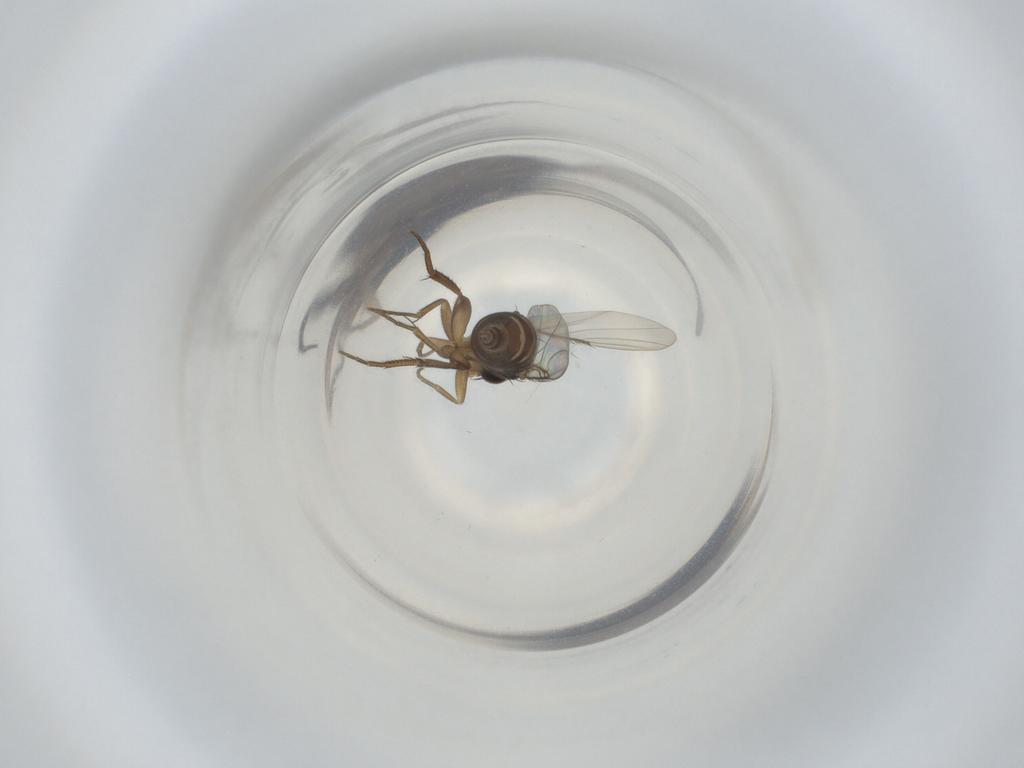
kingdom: Animalia
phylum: Arthropoda
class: Insecta
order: Diptera
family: Phoridae
